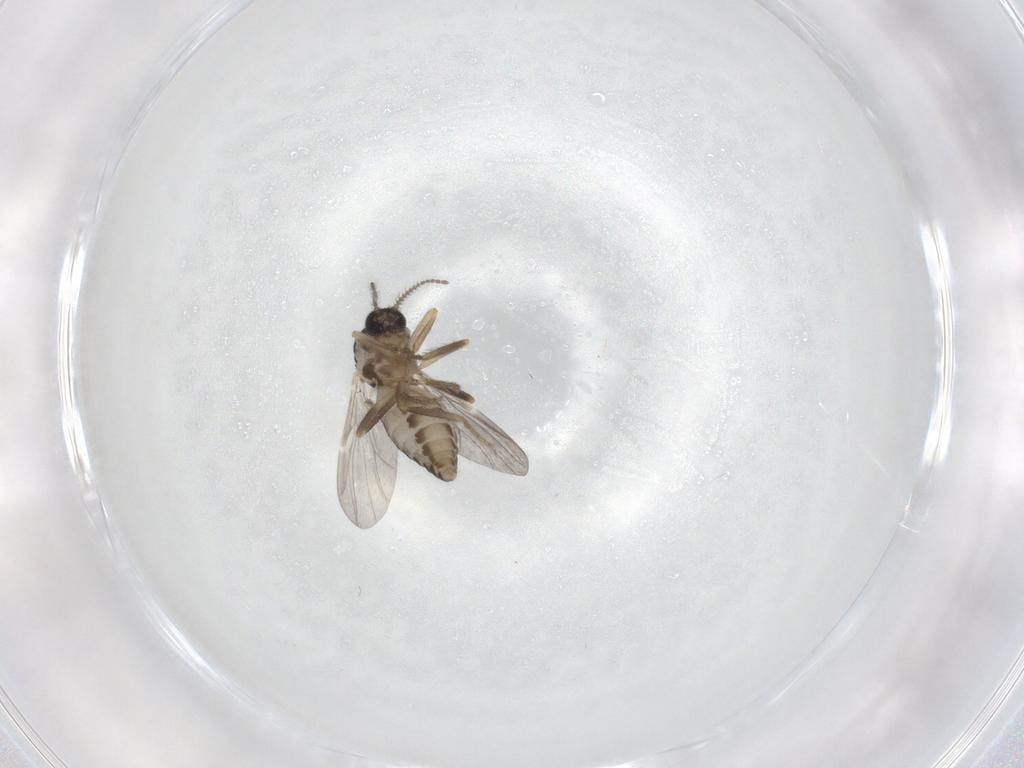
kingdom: Animalia
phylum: Arthropoda
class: Insecta
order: Diptera
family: Ceratopogonidae
